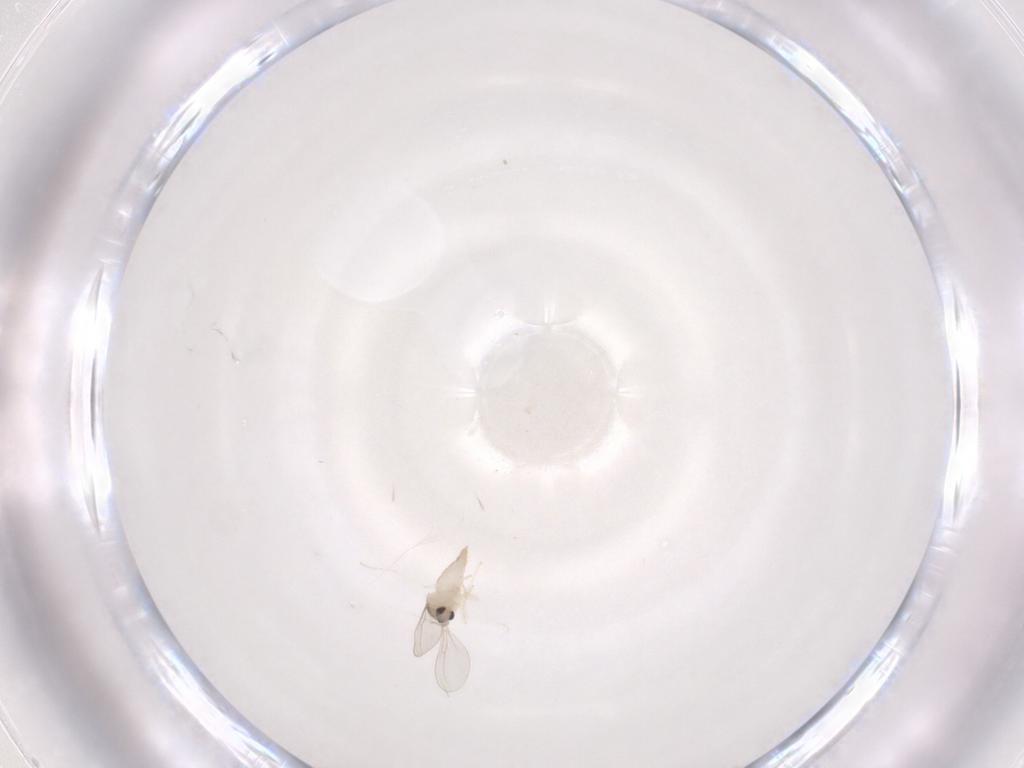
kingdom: Animalia
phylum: Arthropoda
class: Insecta
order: Diptera
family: Cecidomyiidae
